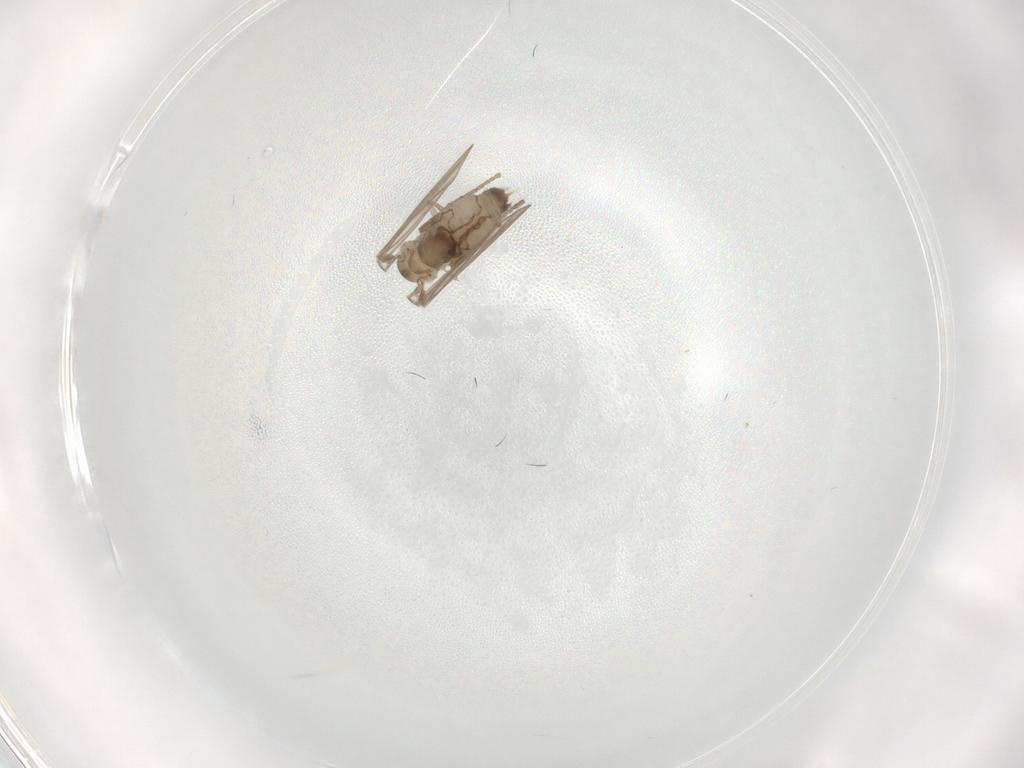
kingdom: Animalia
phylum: Arthropoda
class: Insecta
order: Diptera
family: Psychodidae
